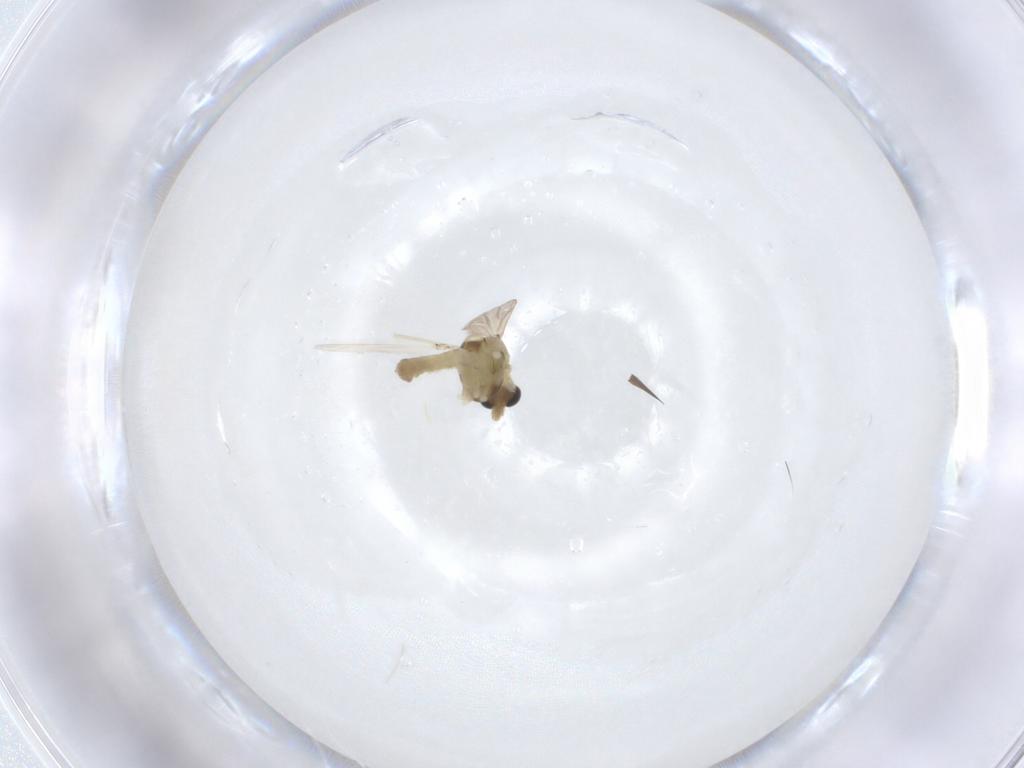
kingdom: Animalia
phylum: Arthropoda
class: Insecta
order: Diptera
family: Chironomidae
